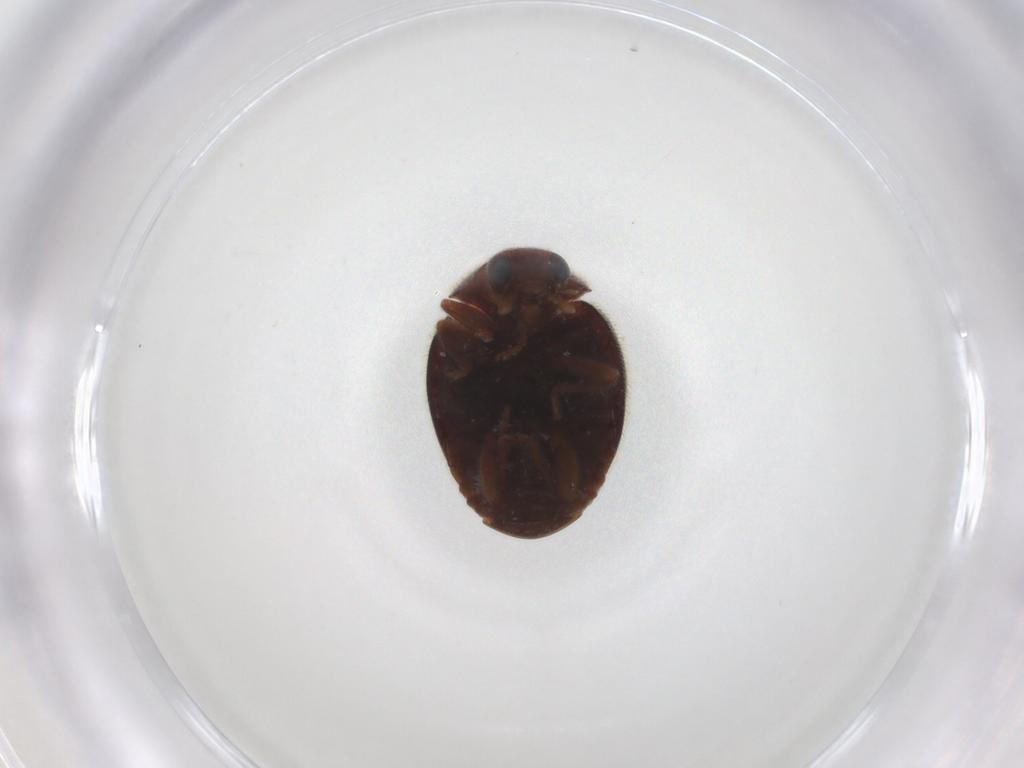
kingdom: Animalia
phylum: Arthropoda
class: Insecta
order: Coleoptera
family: Coccinellidae
